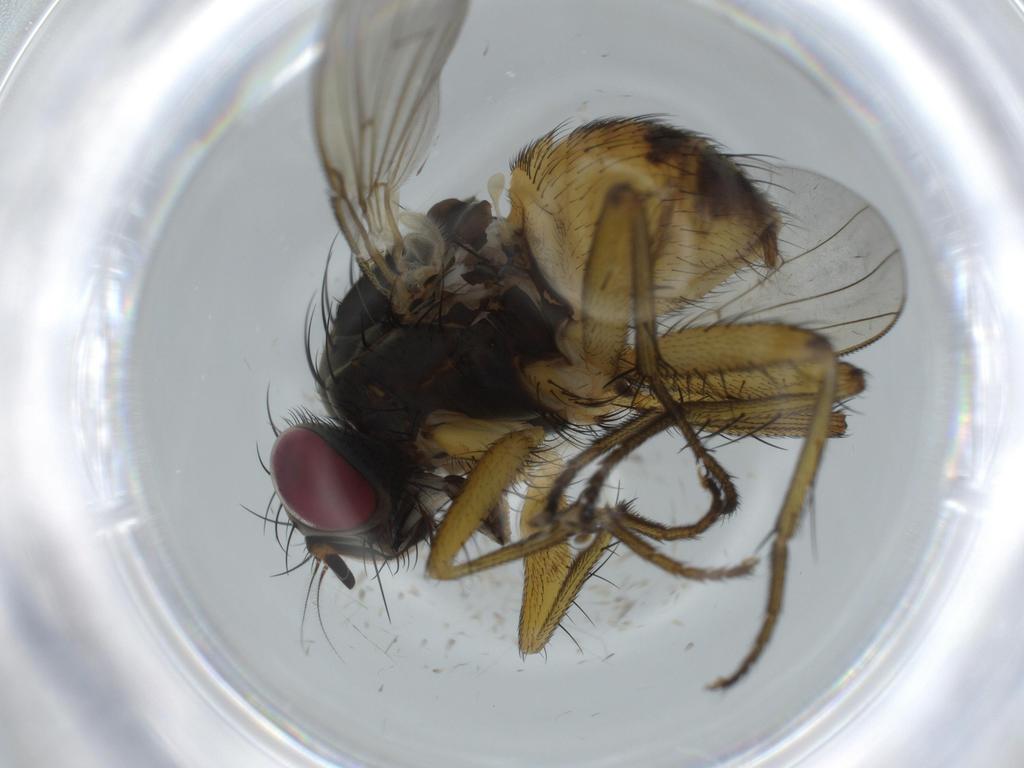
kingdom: Animalia
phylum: Arthropoda
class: Insecta
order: Diptera
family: Muscidae
